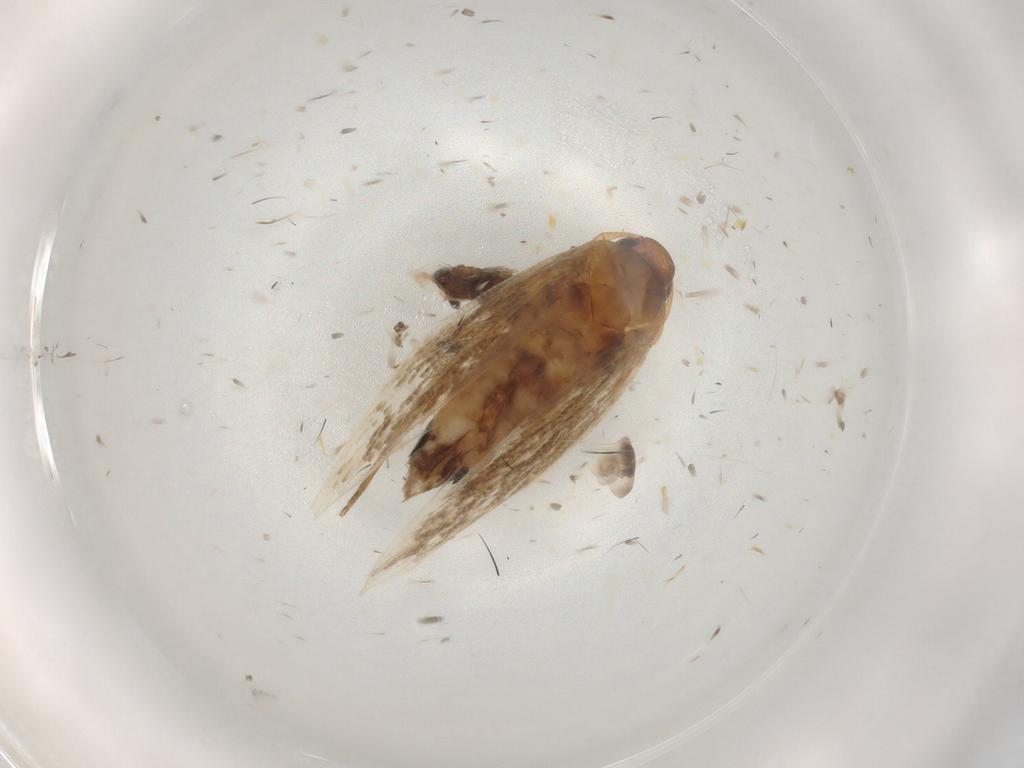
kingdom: Animalia
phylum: Arthropoda
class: Insecta
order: Diptera
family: Sciaridae
